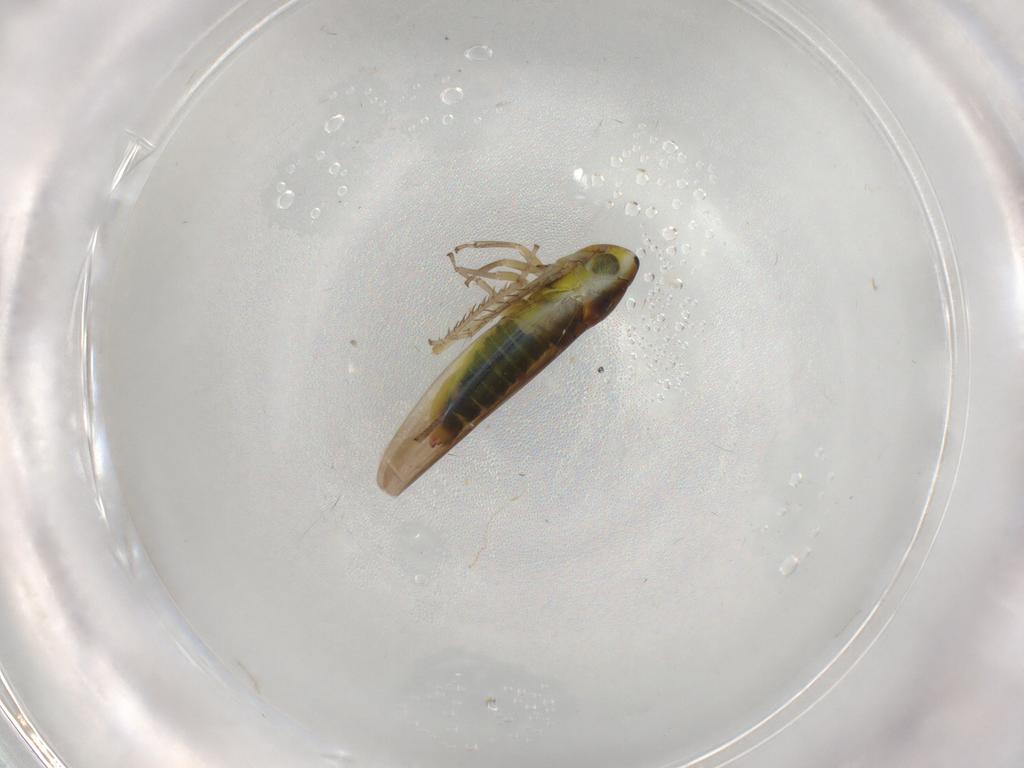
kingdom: Animalia
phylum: Arthropoda
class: Insecta
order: Hemiptera
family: Cicadellidae
